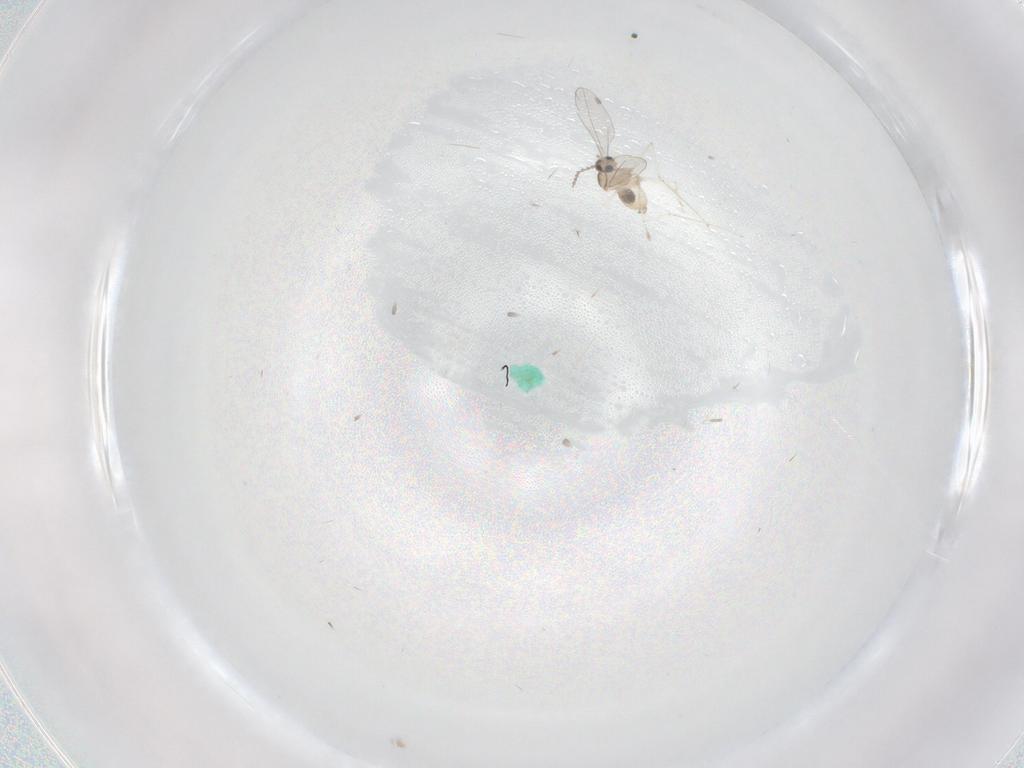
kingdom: Animalia
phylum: Arthropoda
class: Insecta
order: Diptera
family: Cecidomyiidae
